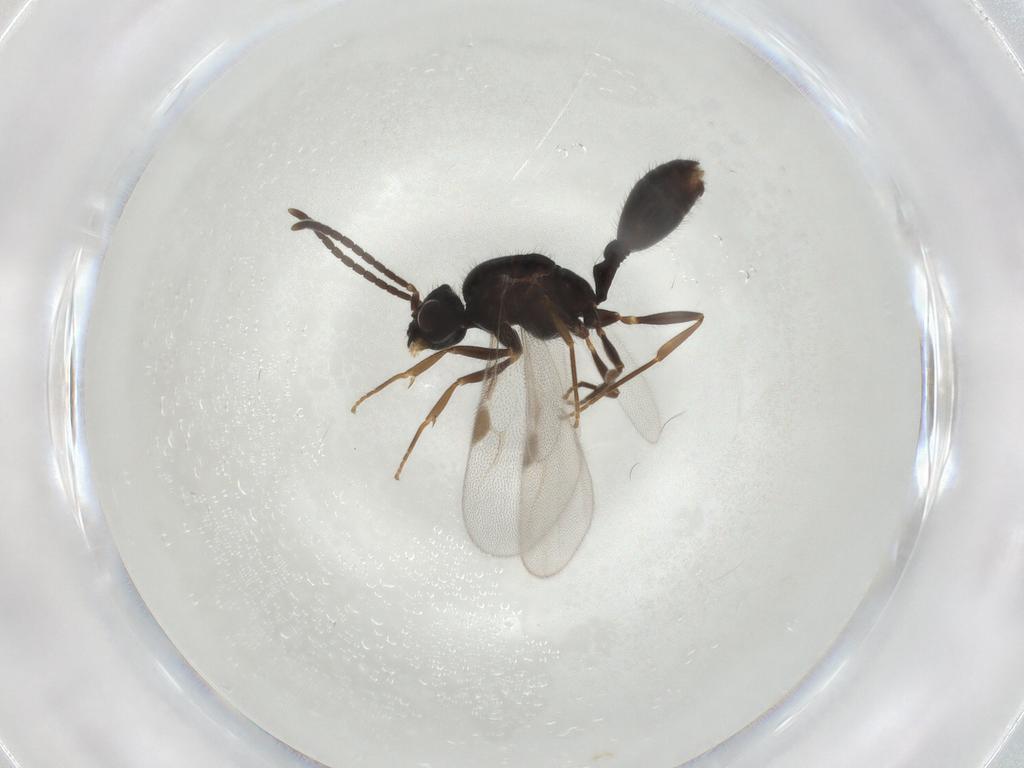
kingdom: Animalia
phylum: Arthropoda
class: Insecta
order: Hymenoptera
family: Formicidae
